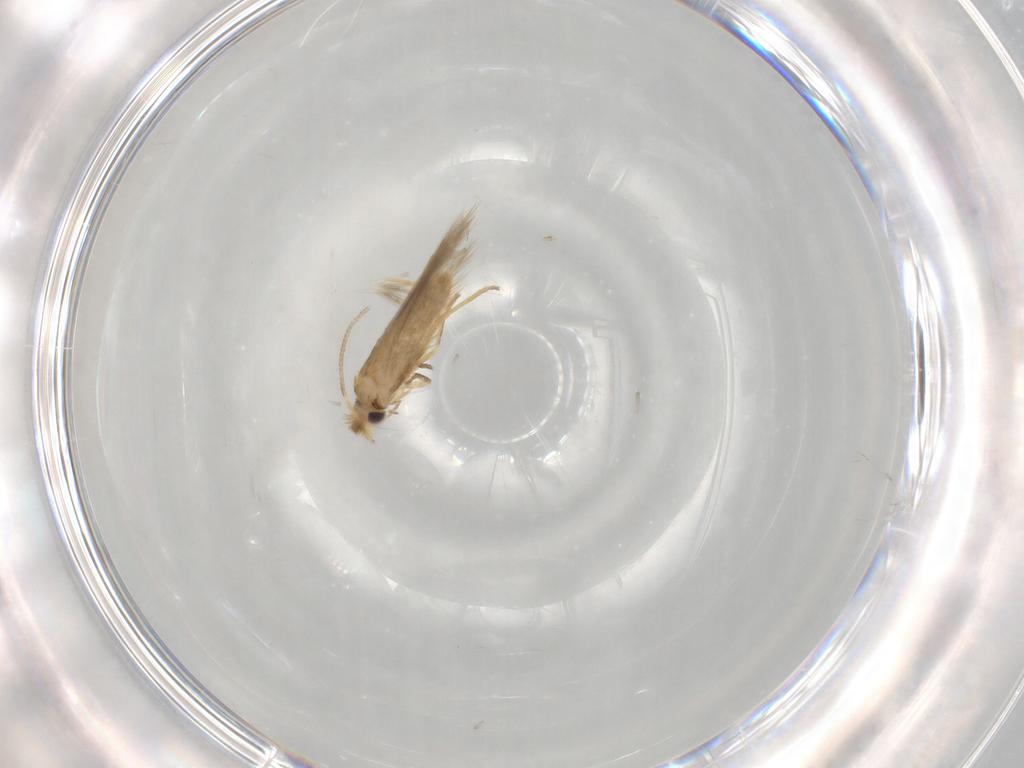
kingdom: Animalia
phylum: Arthropoda
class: Insecta
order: Lepidoptera
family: Nepticulidae
